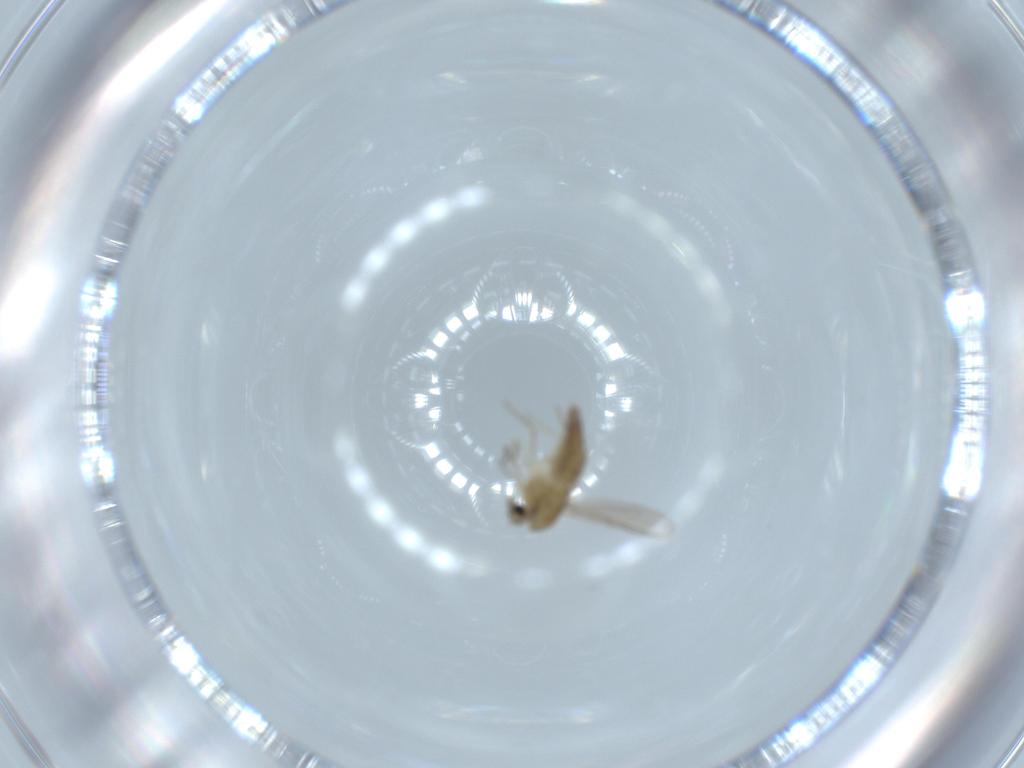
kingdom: Animalia
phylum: Arthropoda
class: Insecta
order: Diptera
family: Chironomidae
